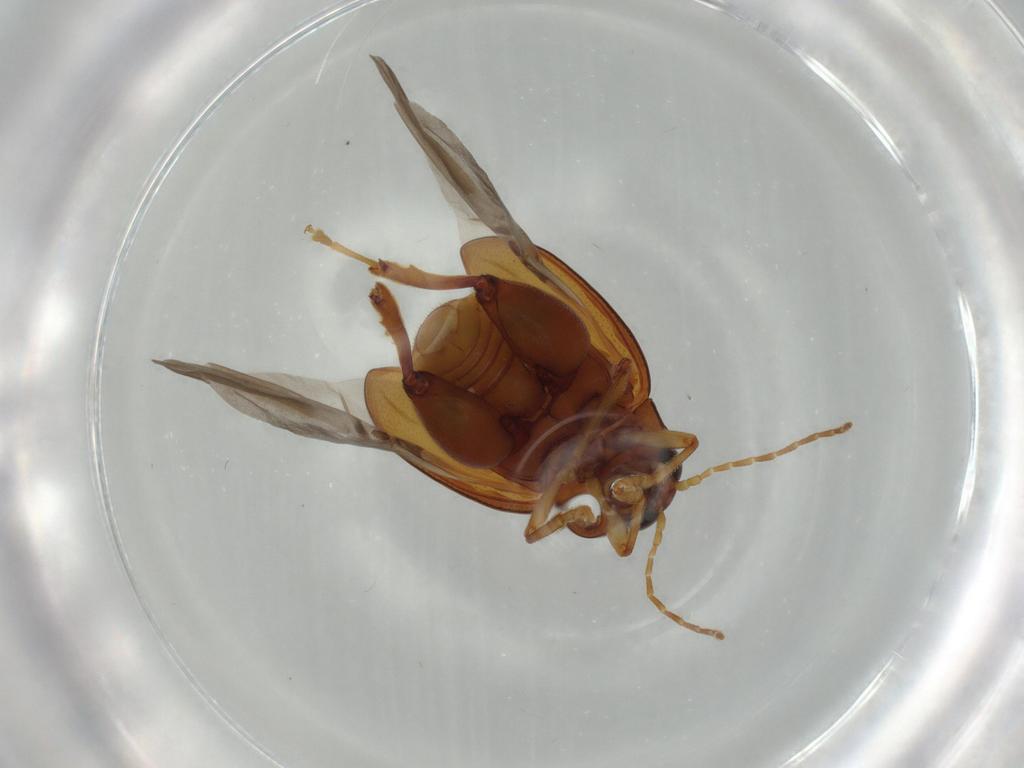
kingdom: Animalia
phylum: Arthropoda
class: Insecta
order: Coleoptera
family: Chrysomelidae
